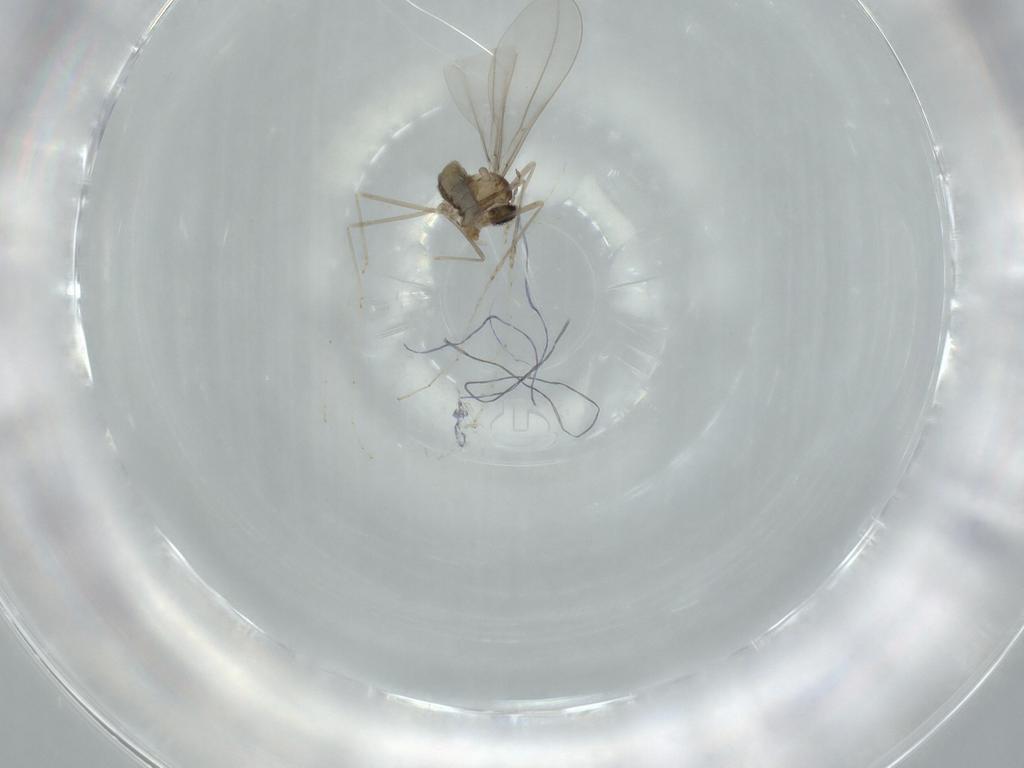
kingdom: Animalia
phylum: Arthropoda
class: Insecta
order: Diptera
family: Cecidomyiidae
